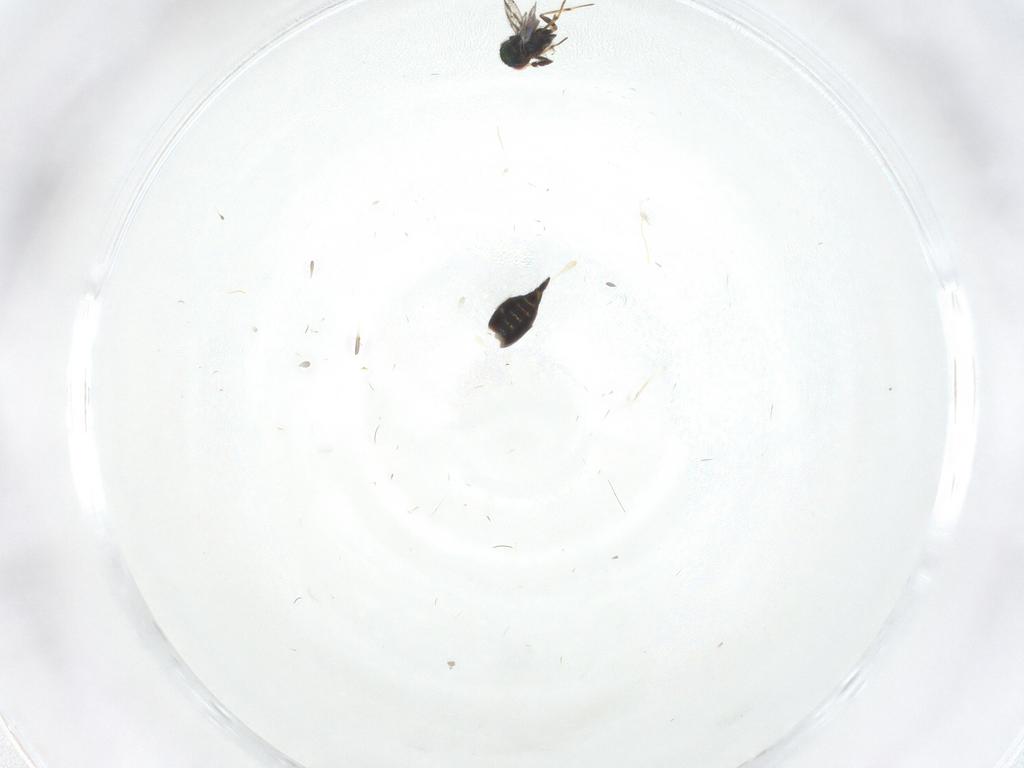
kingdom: Animalia
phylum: Arthropoda
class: Insecta
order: Hymenoptera
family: Eulophidae
